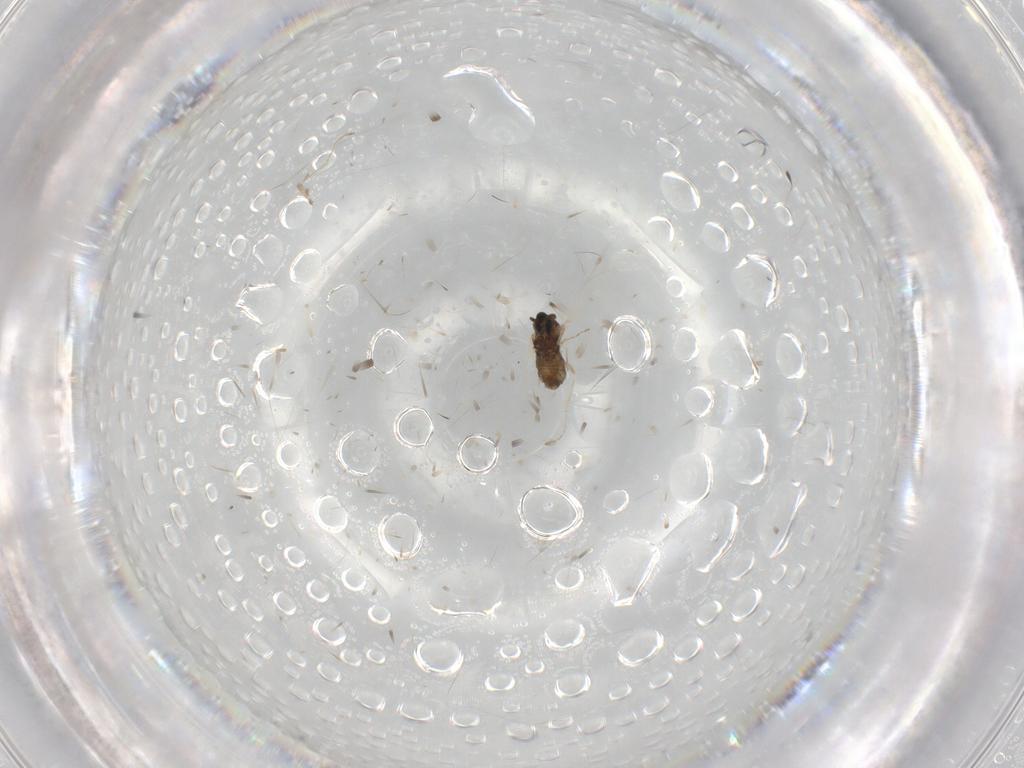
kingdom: Animalia
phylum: Arthropoda
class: Insecta
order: Diptera
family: Cecidomyiidae
